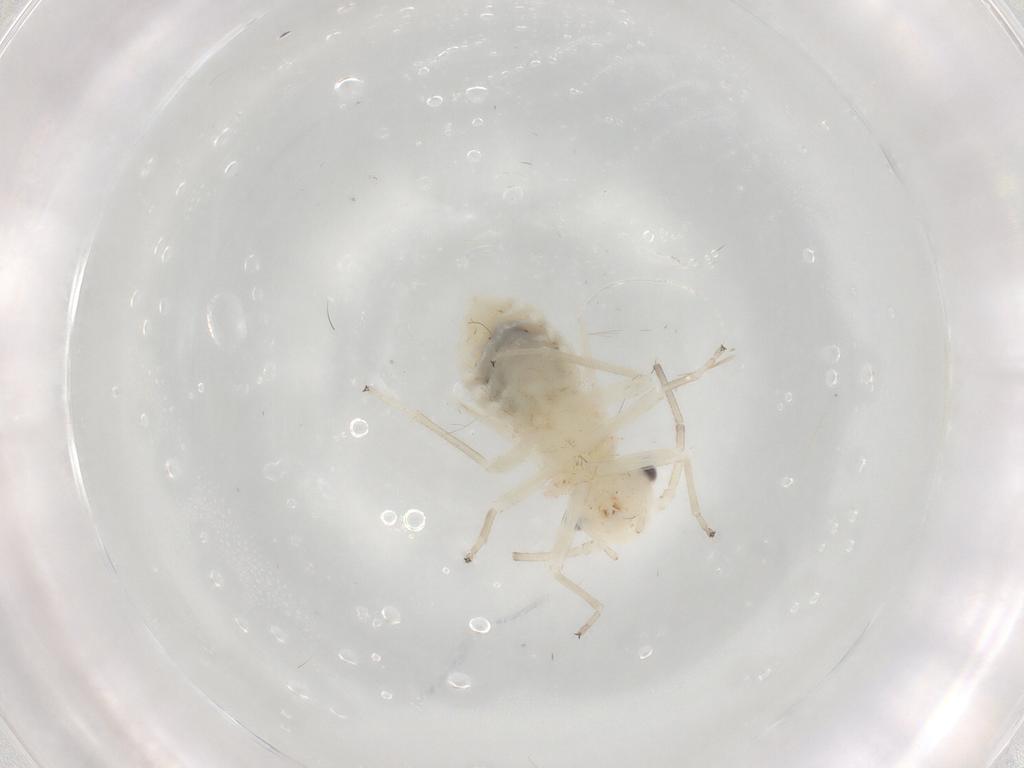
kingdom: Animalia
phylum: Arthropoda
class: Insecta
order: Psocodea
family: Stenopsocidae
